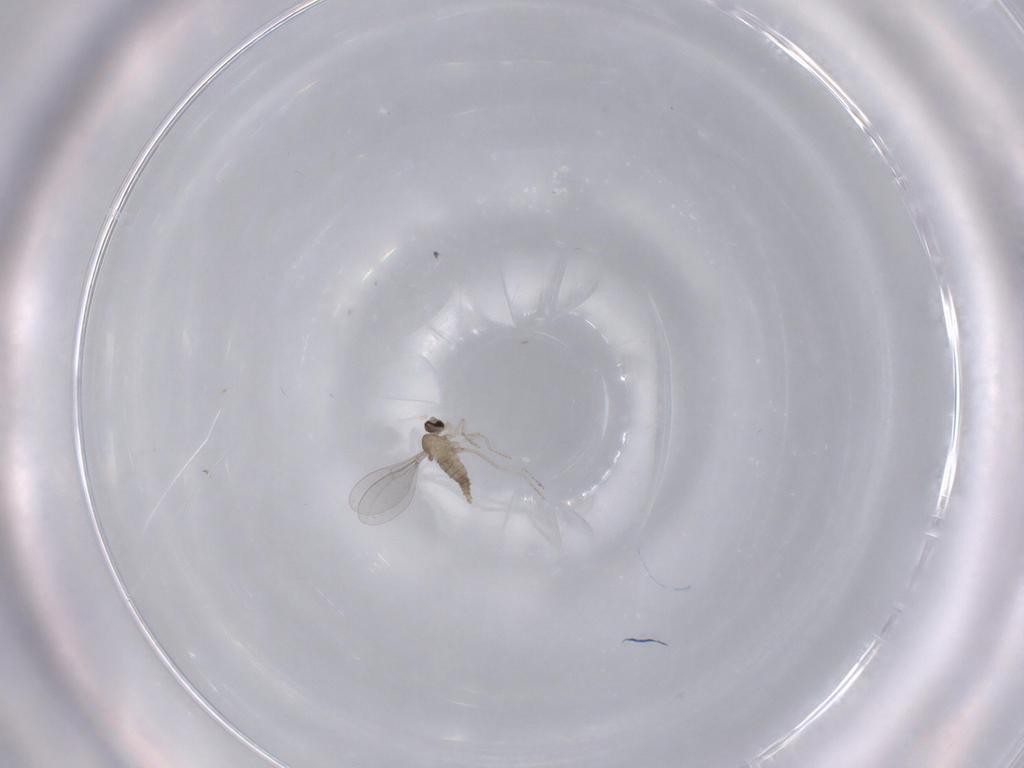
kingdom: Animalia
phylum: Arthropoda
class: Insecta
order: Diptera
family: Cecidomyiidae
